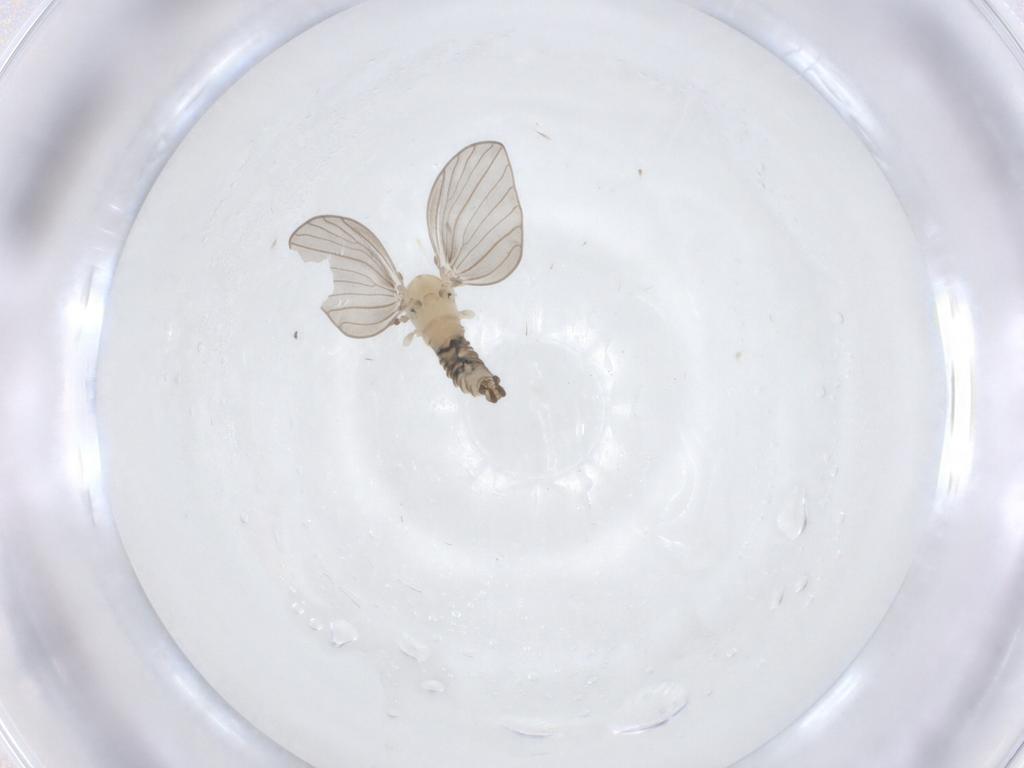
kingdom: Animalia
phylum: Arthropoda
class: Insecta
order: Diptera
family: Psychodidae
